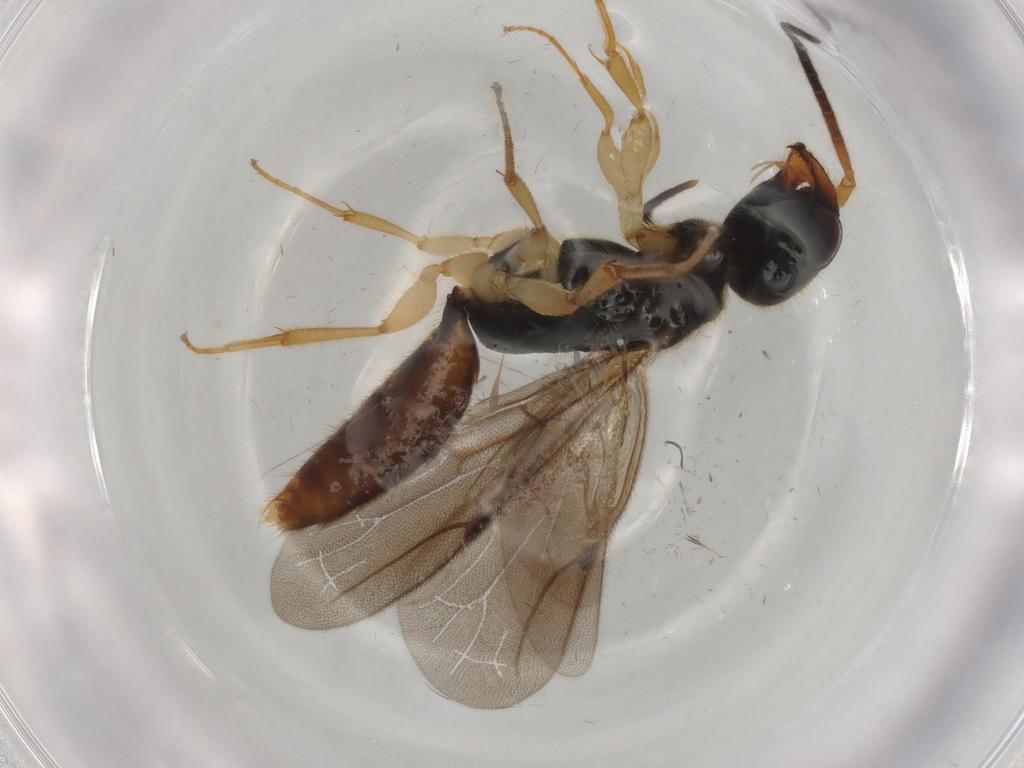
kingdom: Animalia
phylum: Arthropoda
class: Insecta
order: Hymenoptera
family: Bethylidae
